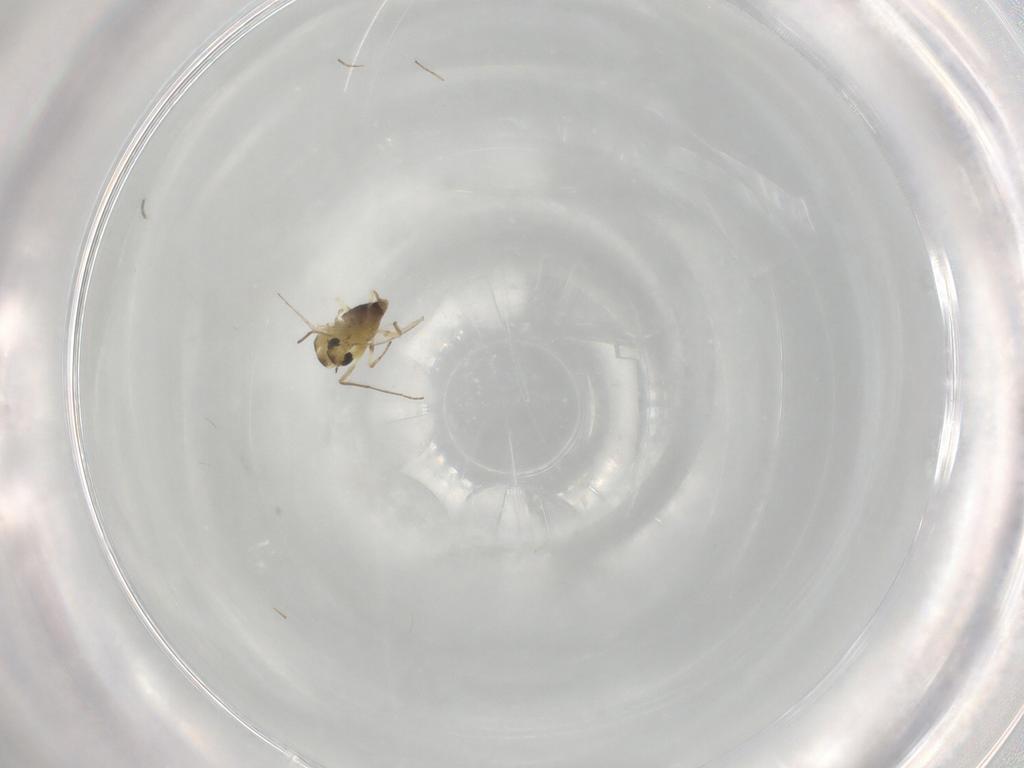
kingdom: Animalia
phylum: Arthropoda
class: Insecta
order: Diptera
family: Chironomidae
